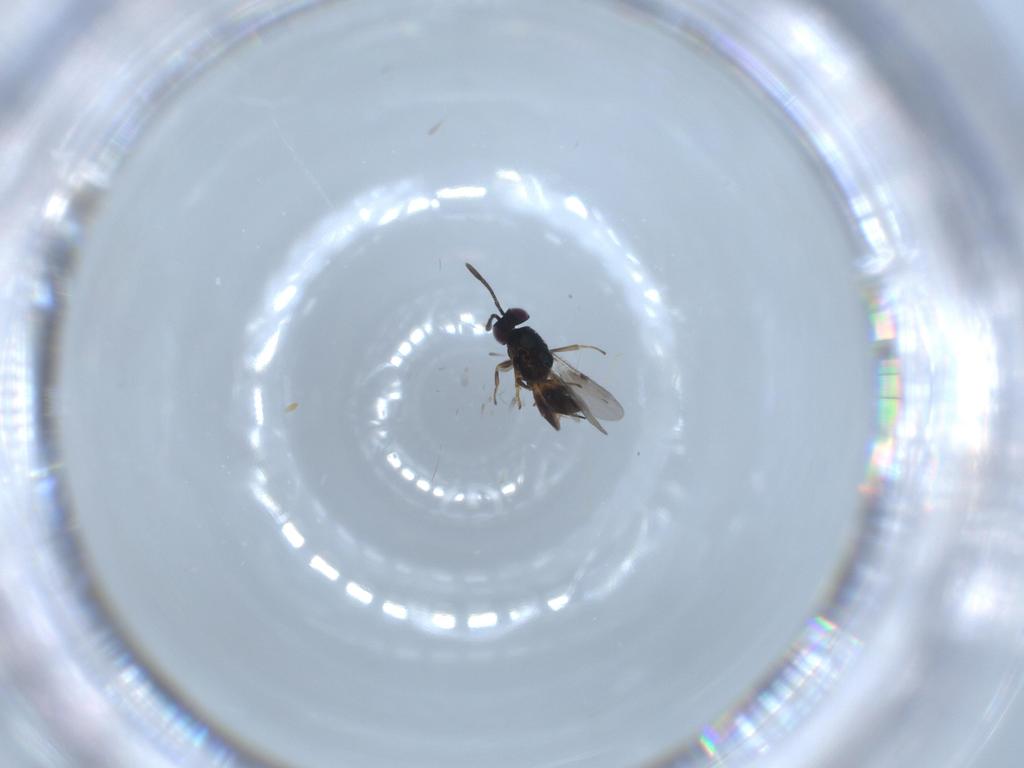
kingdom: Animalia
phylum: Arthropoda
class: Insecta
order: Hymenoptera
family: Encyrtidae
